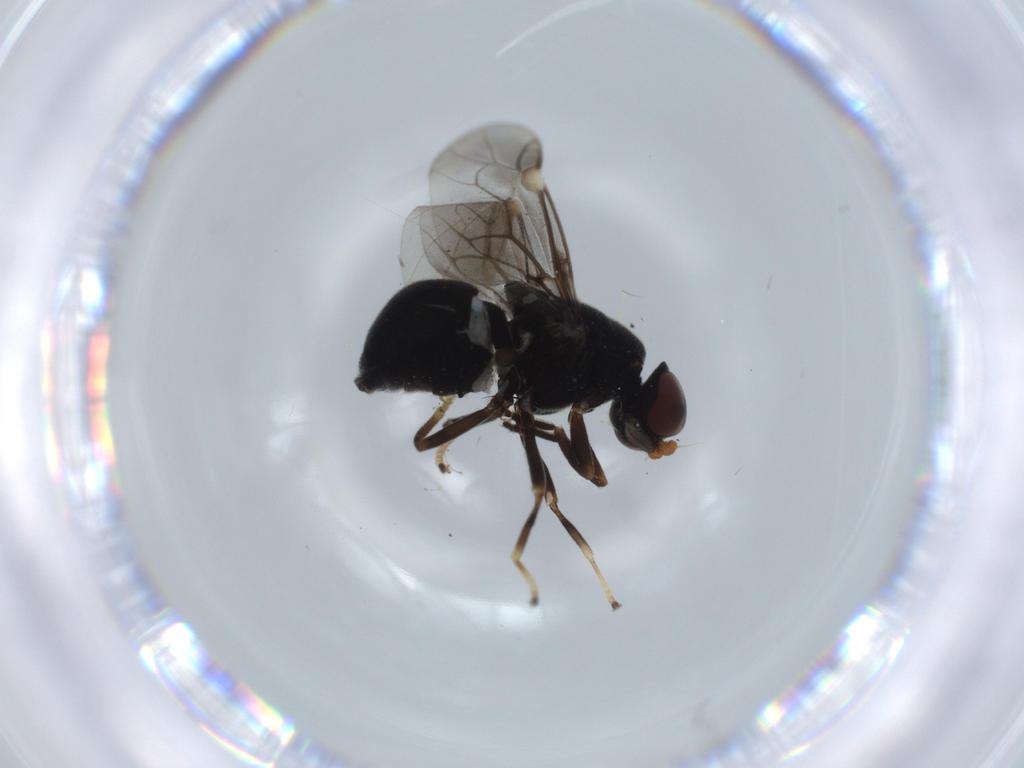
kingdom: Animalia
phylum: Arthropoda
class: Insecta
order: Diptera
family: Stratiomyidae
